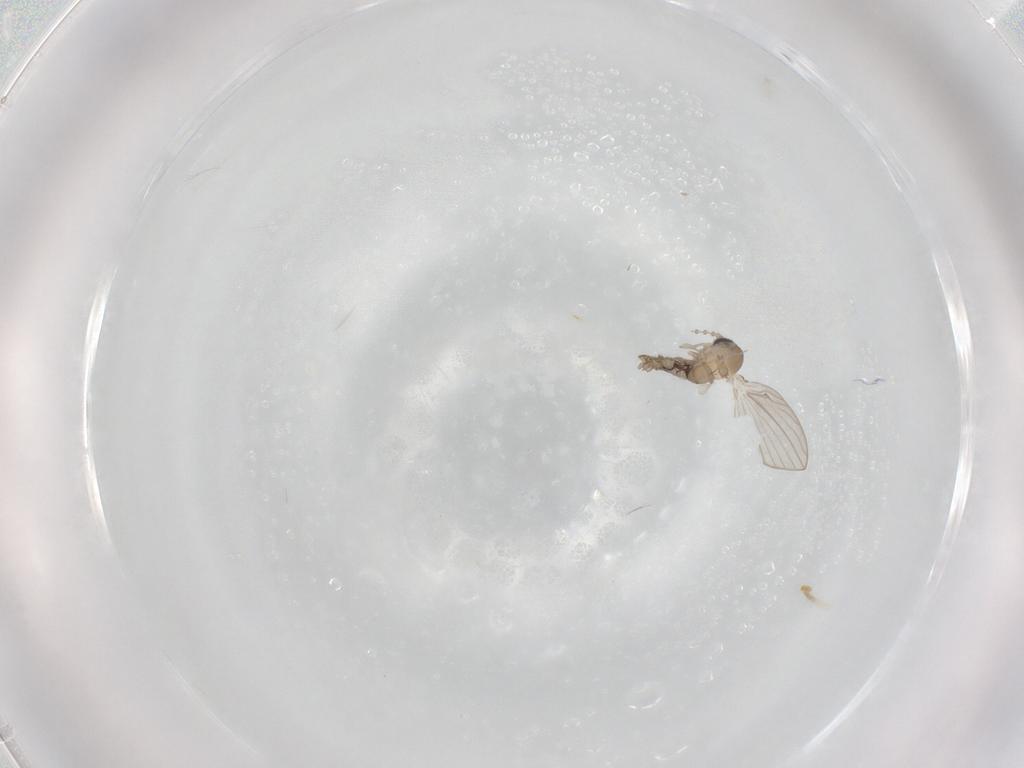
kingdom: Animalia
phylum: Arthropoda
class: Insecta
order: Diptera
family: Psychodidae
